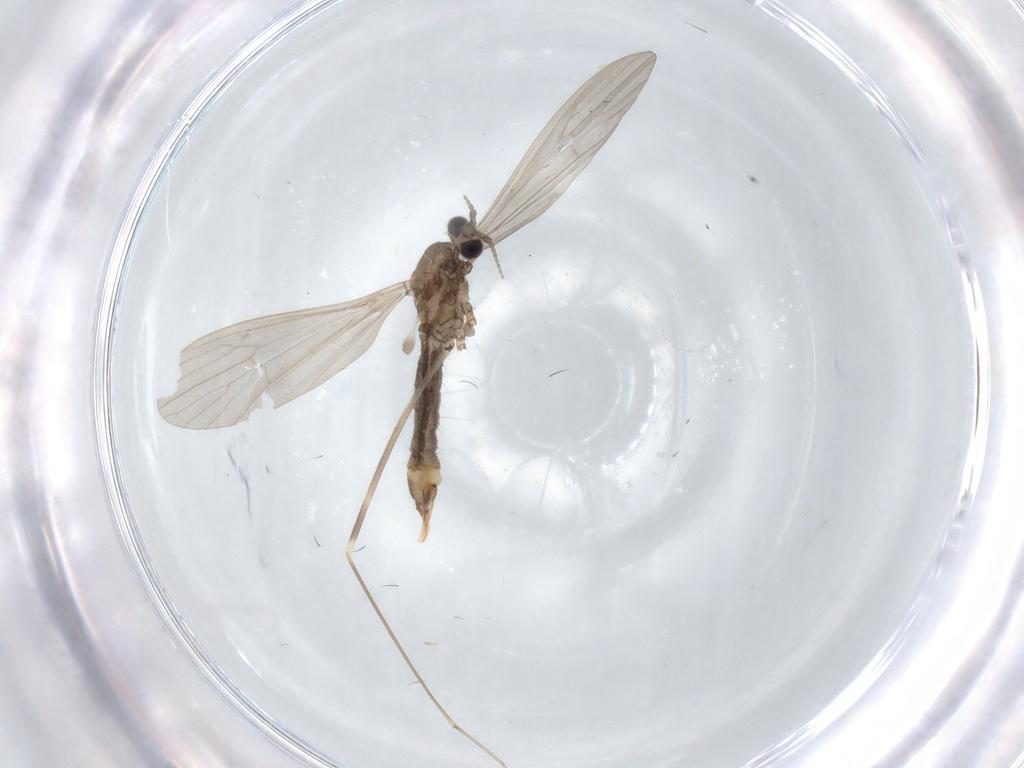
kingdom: Animalia
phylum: Arthropoda
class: Insecta
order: Diptera
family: Limoniidae
